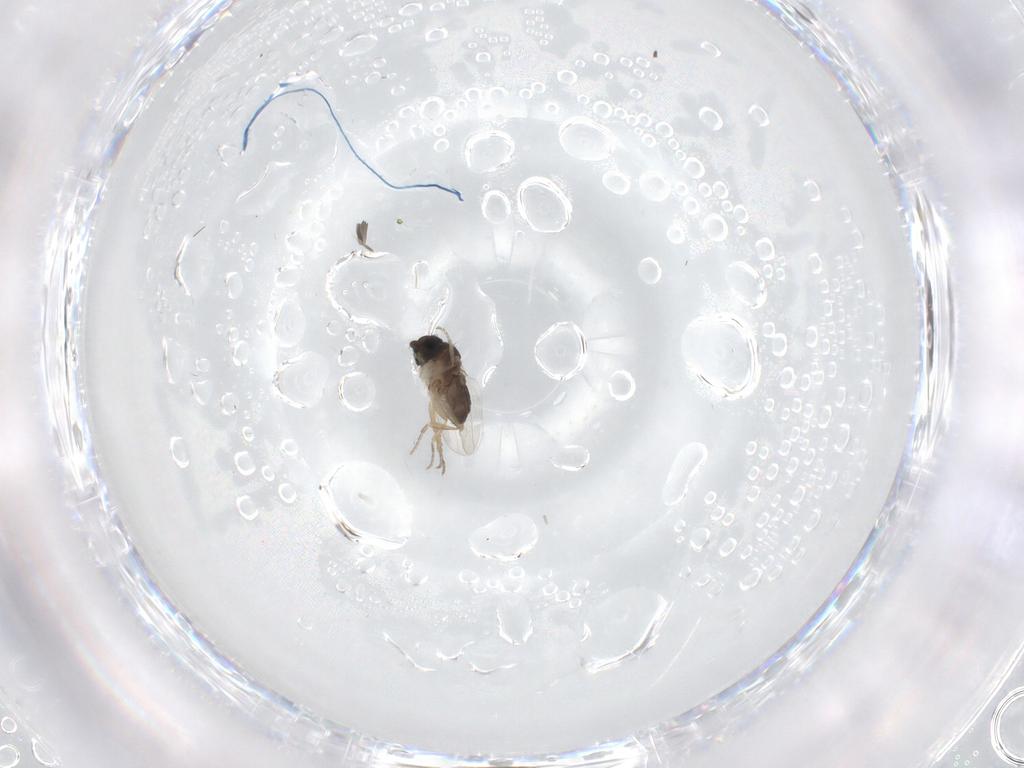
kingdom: Animalia
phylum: Arthropoda
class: Insecta
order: Diptera
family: Phoridae
